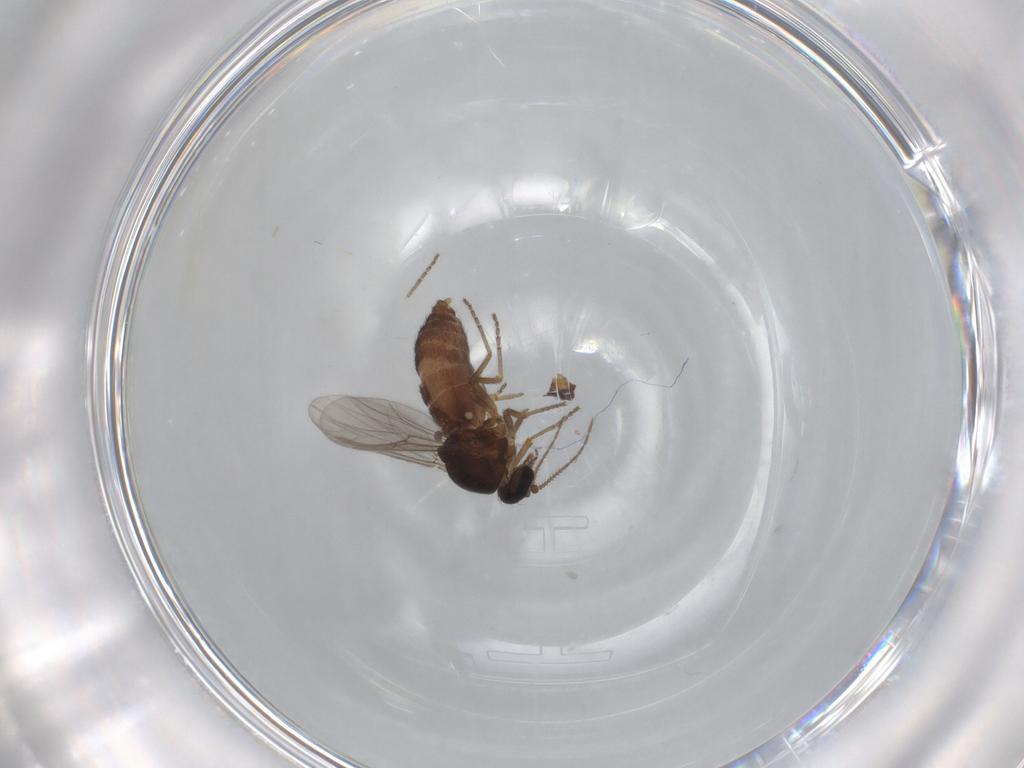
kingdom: Animalia
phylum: Arthropoda
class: Insecta
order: Diptera
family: Ceratopogonidae
